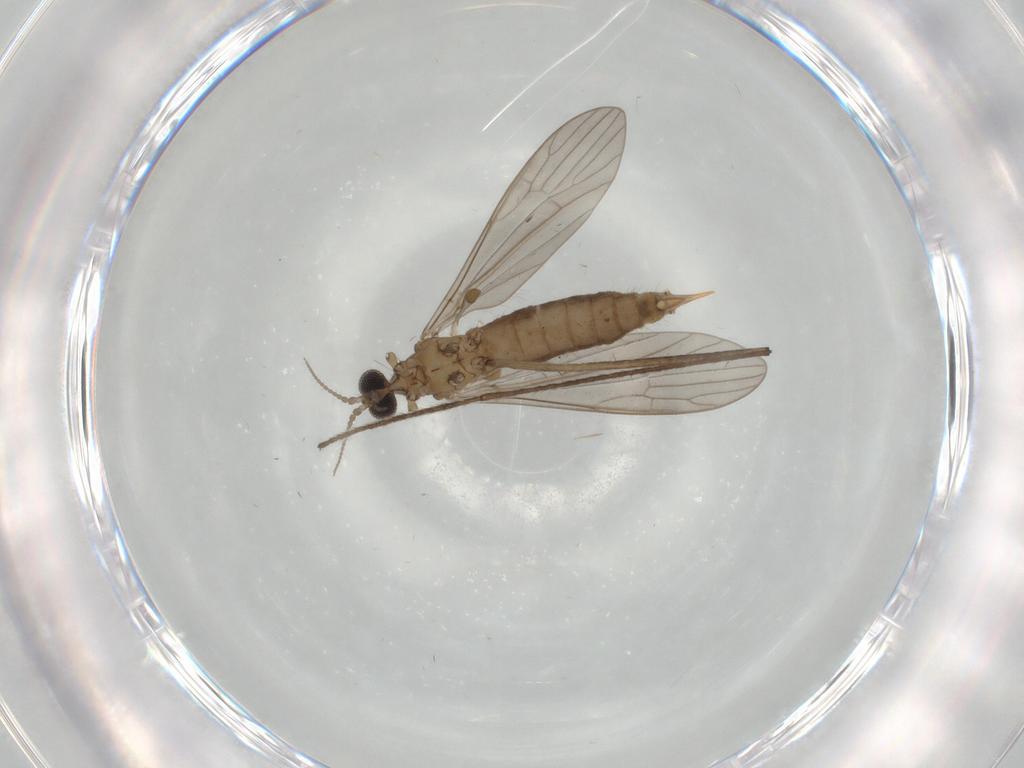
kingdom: Animalia
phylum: Arthropoda
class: Insecta
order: Diptera
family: Limoniidae
